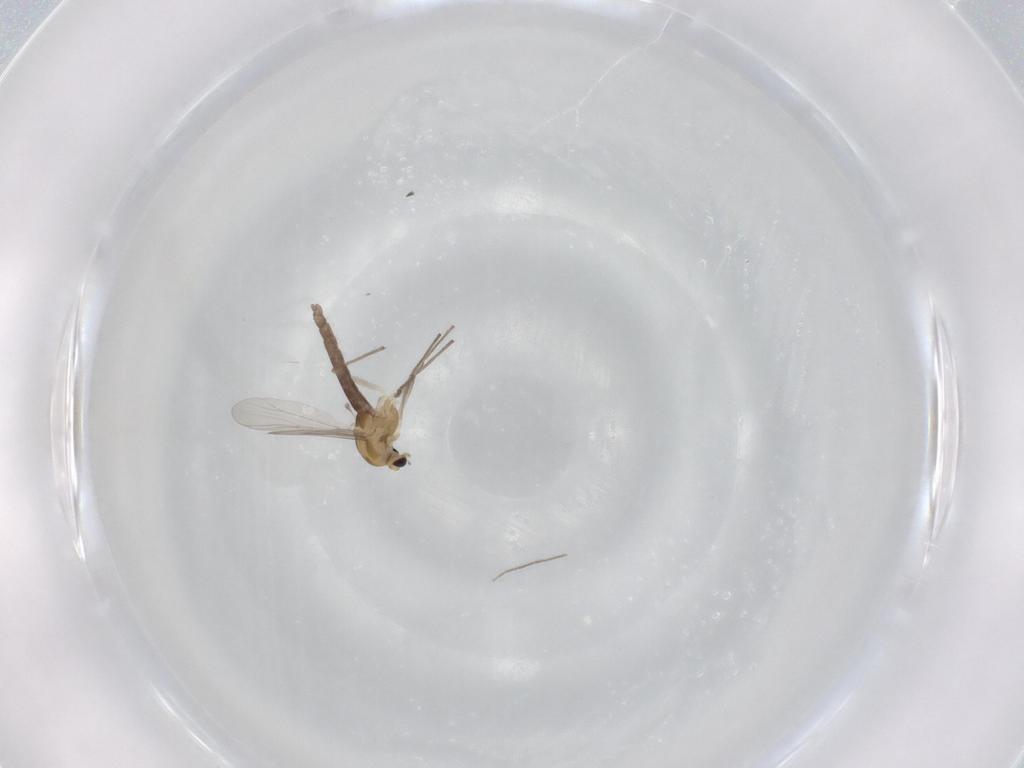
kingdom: Animalia
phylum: Arthropoda
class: Insecta
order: Diptera
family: Chironomidae
